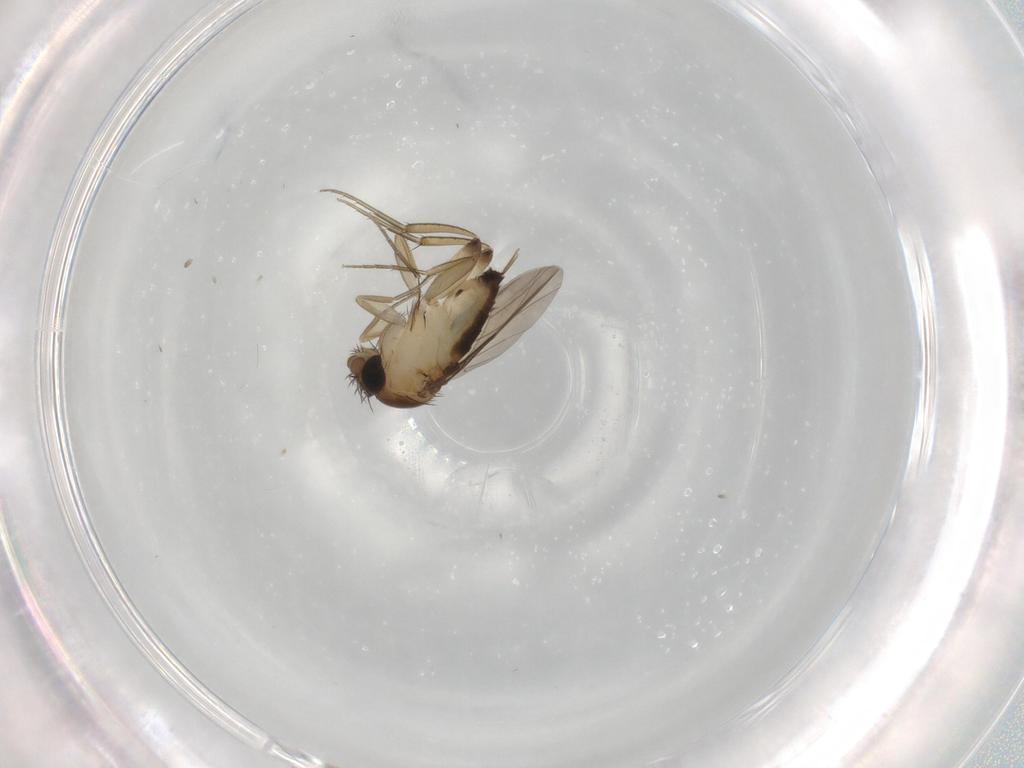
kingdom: Animalia
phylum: Arthropoda
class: Insecta
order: Diptera
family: Phoridae
